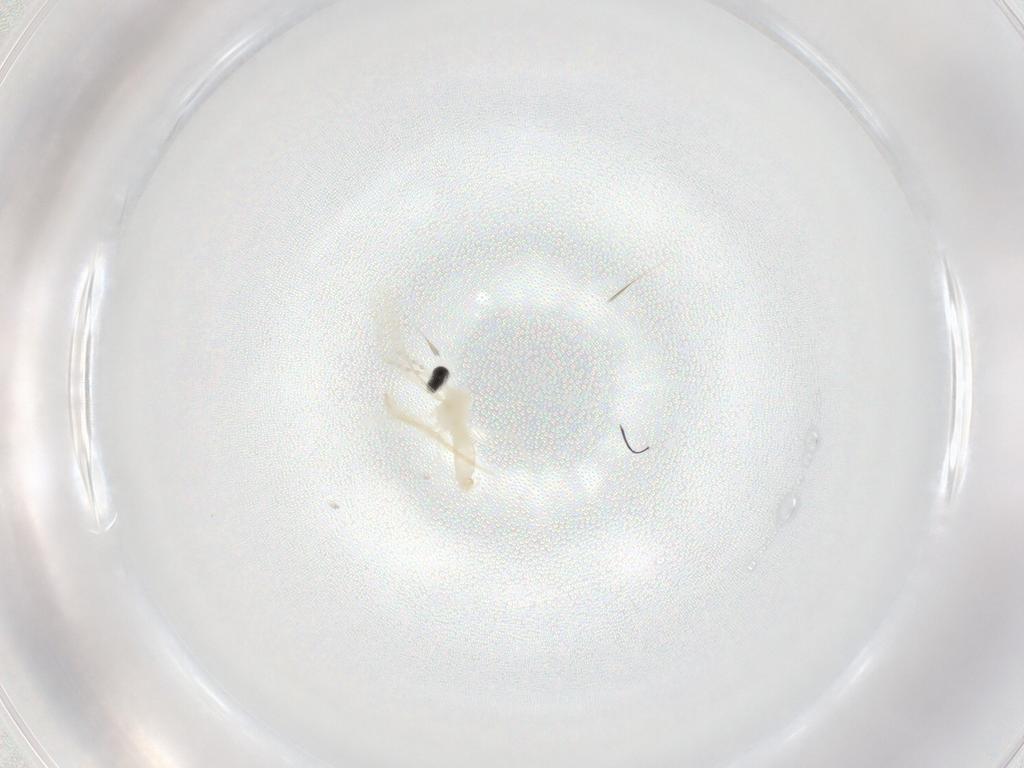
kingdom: Animalia
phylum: Arthropoda
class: Insecta
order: Diptera
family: Cecidomyiidae
